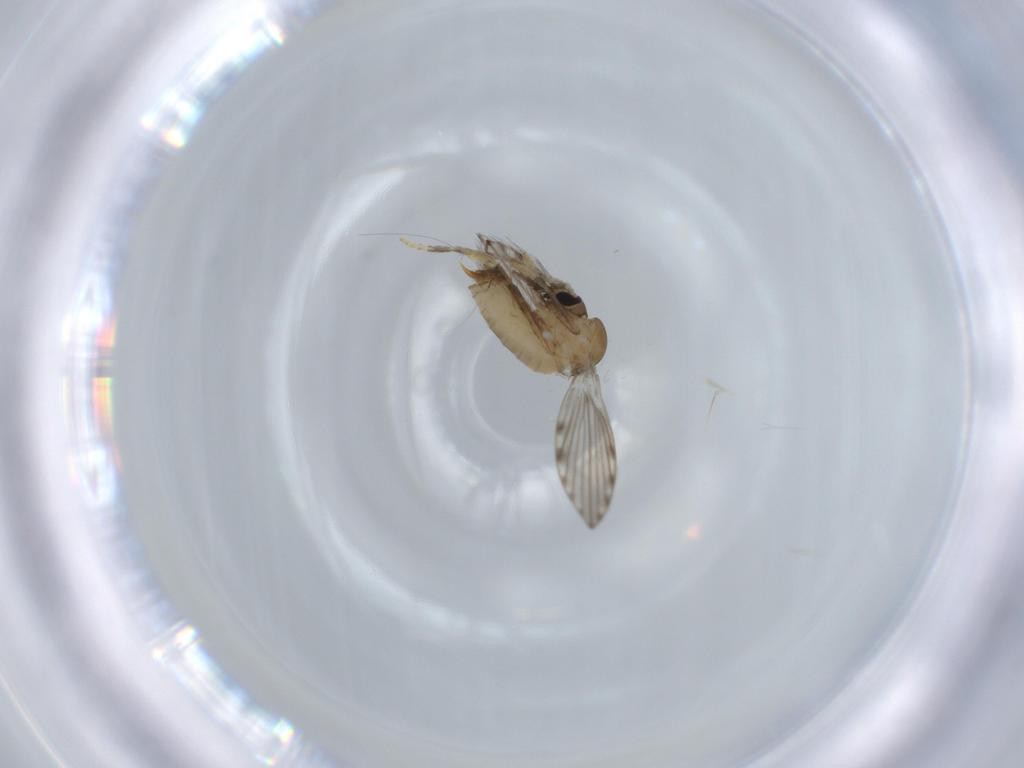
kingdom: Animalia
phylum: Arthropoda
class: Insecta
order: Diptera
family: Psychodidae
